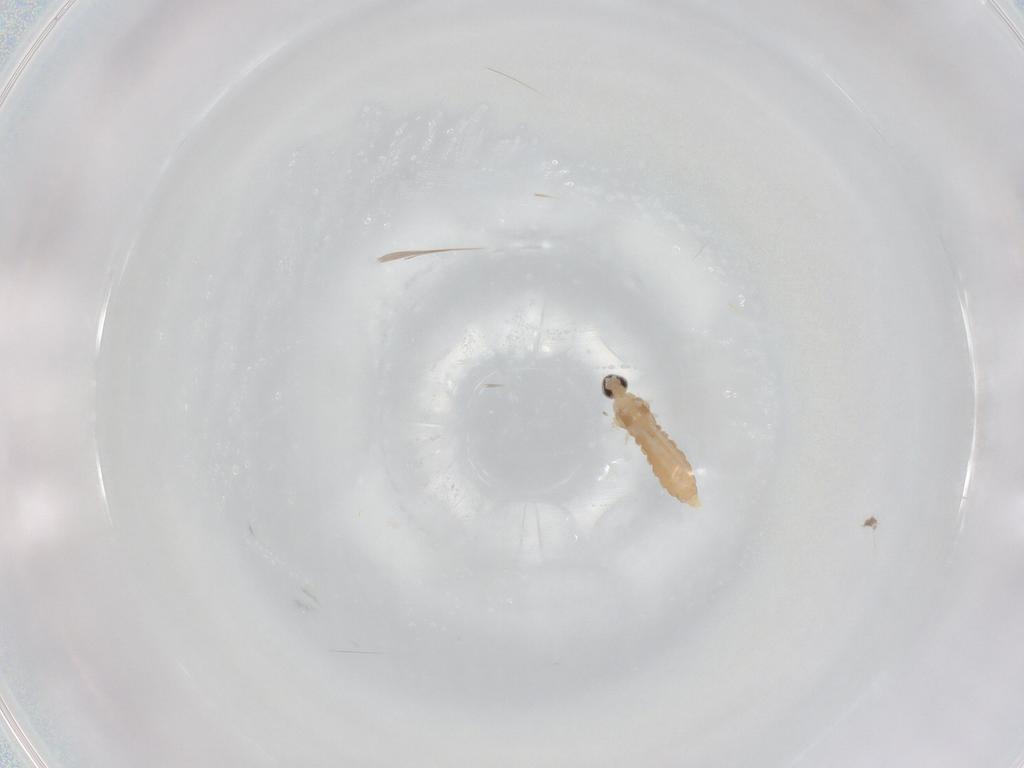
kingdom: Animalia
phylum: Arthropoda
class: Insecta
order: Diptera
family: Cecidomyiidae
